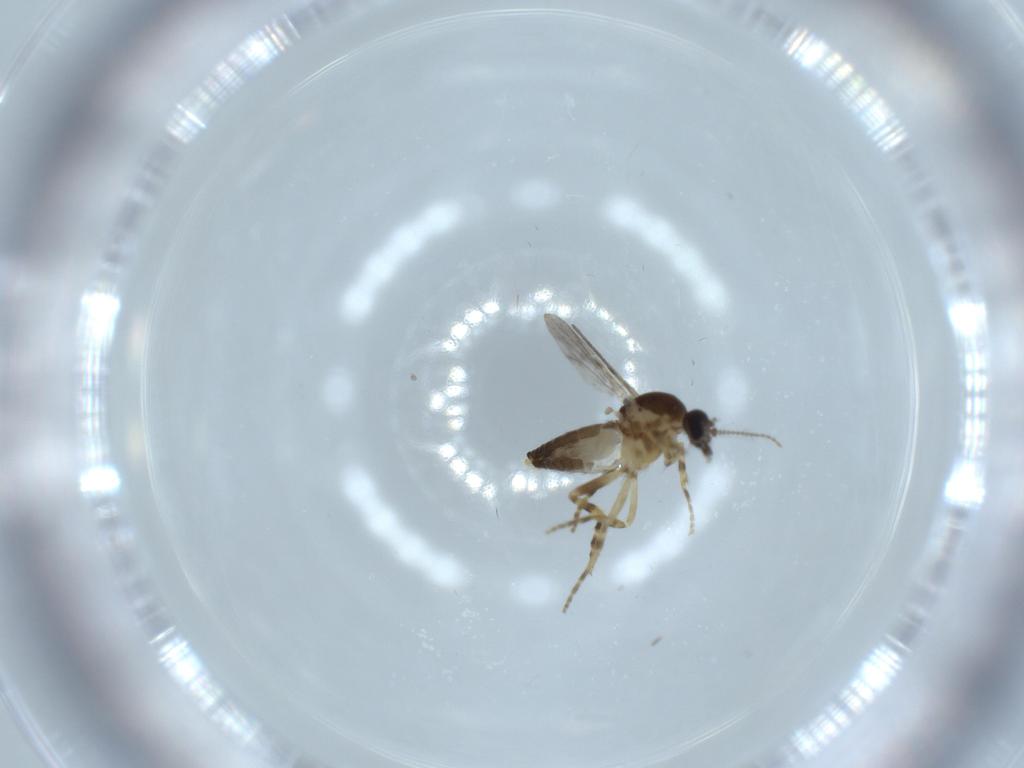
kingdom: Animalia
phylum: Arthropoda
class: Insecta
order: Diptera
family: Ceratopogonidae
